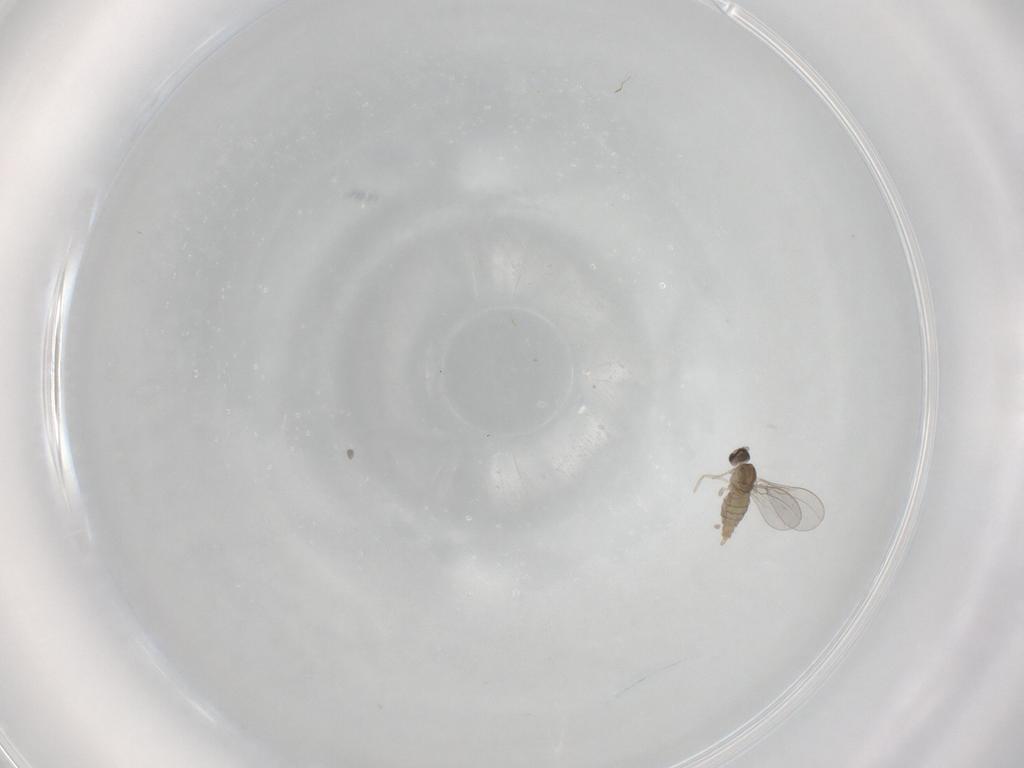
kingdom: Animalia
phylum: Arthropoda
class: Insecta
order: Diptera
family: Cecidomyiidae
